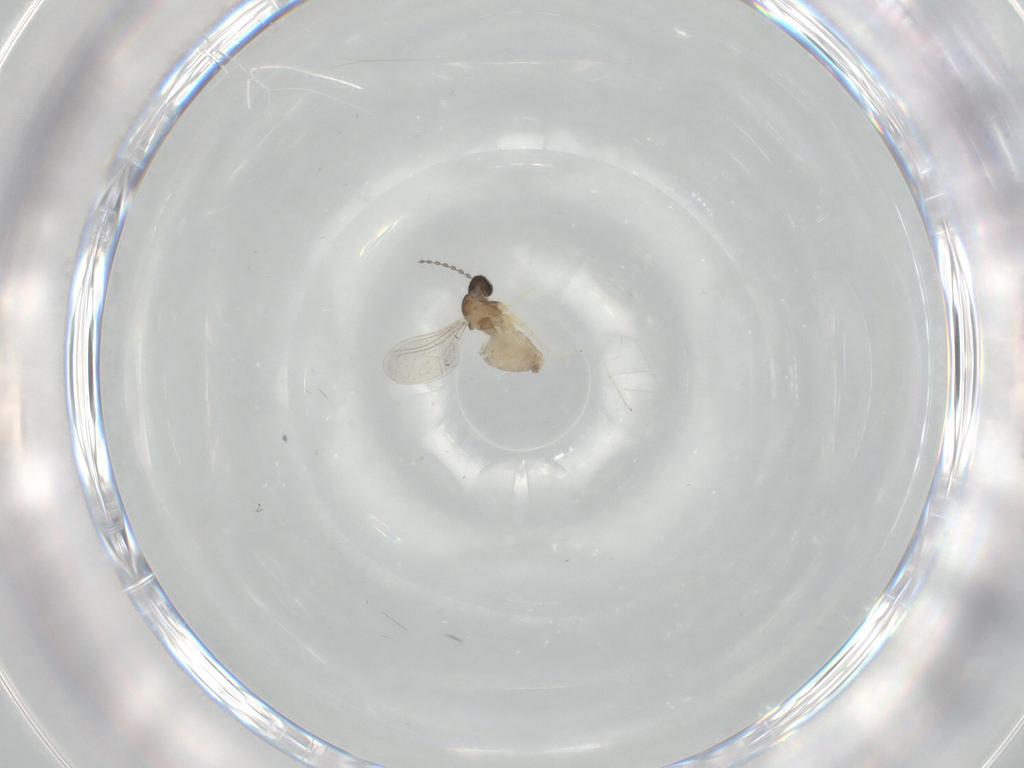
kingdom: Animalia
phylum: Arthropoda
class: Insecta
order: Diptera
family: Cecidomyiidae
